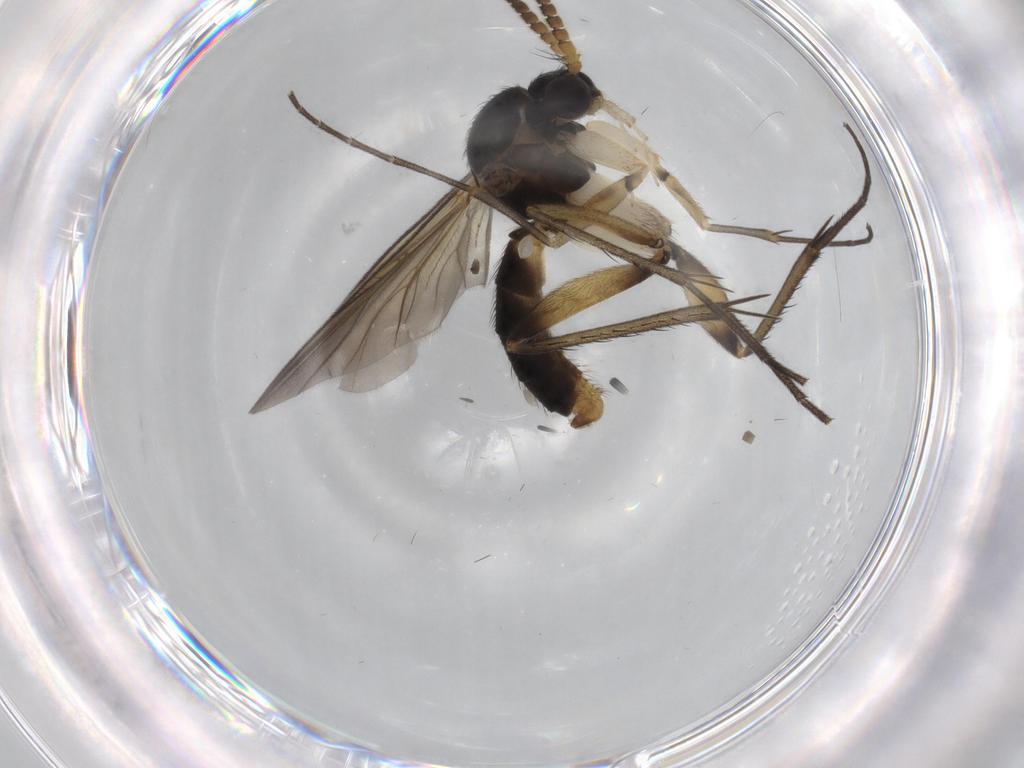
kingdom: Animalia
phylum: Arthropoda
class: Insecta
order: Diptera
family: Sciaridae
